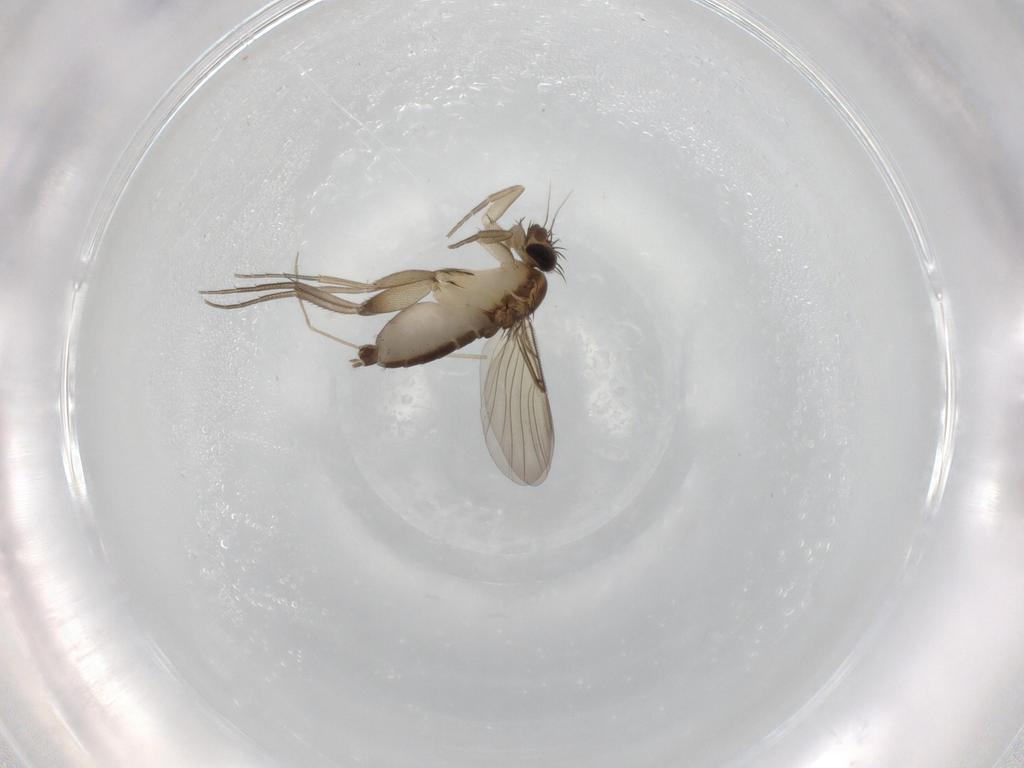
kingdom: Animalia
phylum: Arthropoda
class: Insecta
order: Diptera
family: Phoridae
